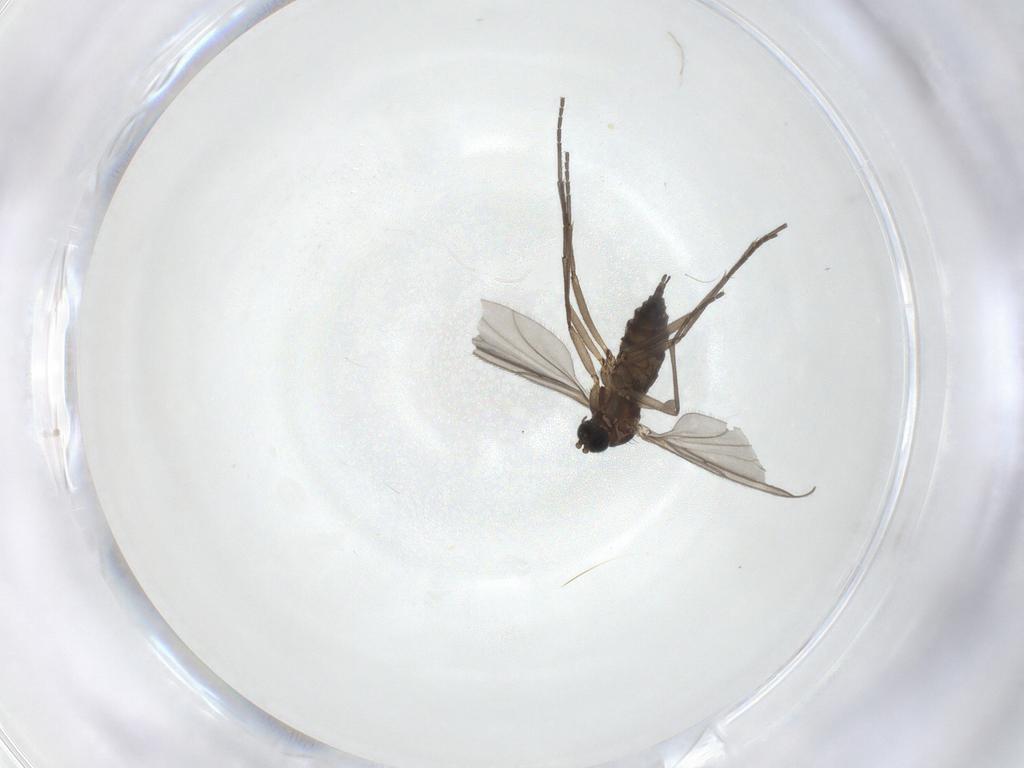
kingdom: Animalia
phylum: Arthropoda
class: Insecta
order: Diptera
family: Sciaridae
